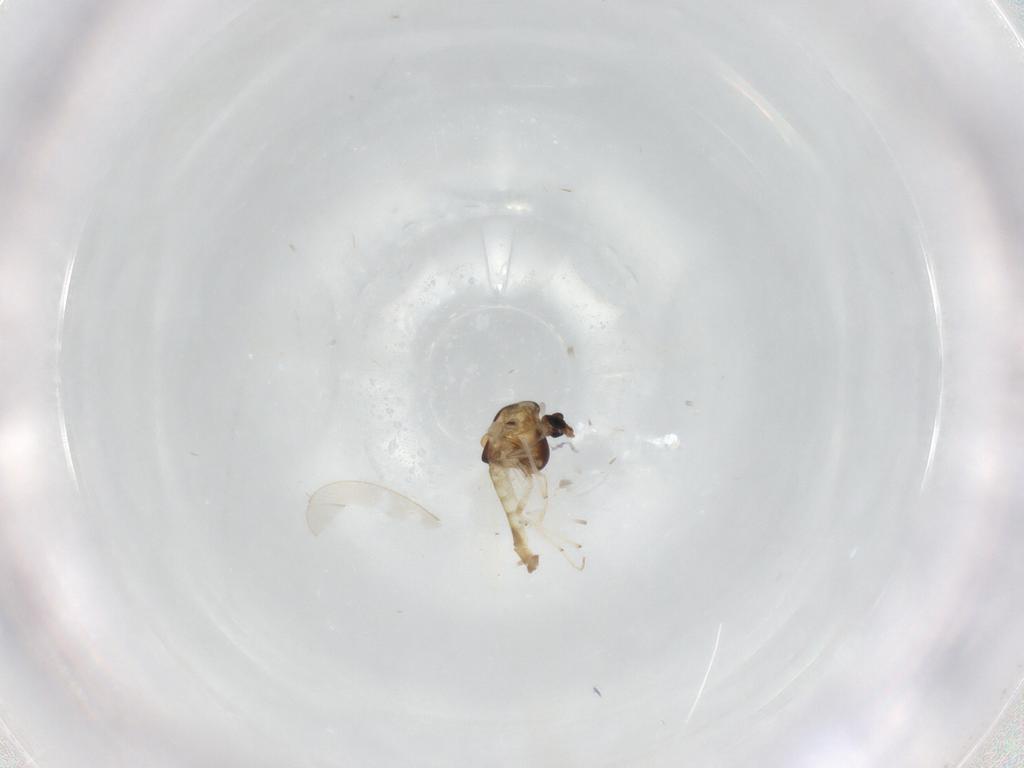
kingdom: Animalia
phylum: Arthropoda
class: Insecta
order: Diptera
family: Chironomidae
